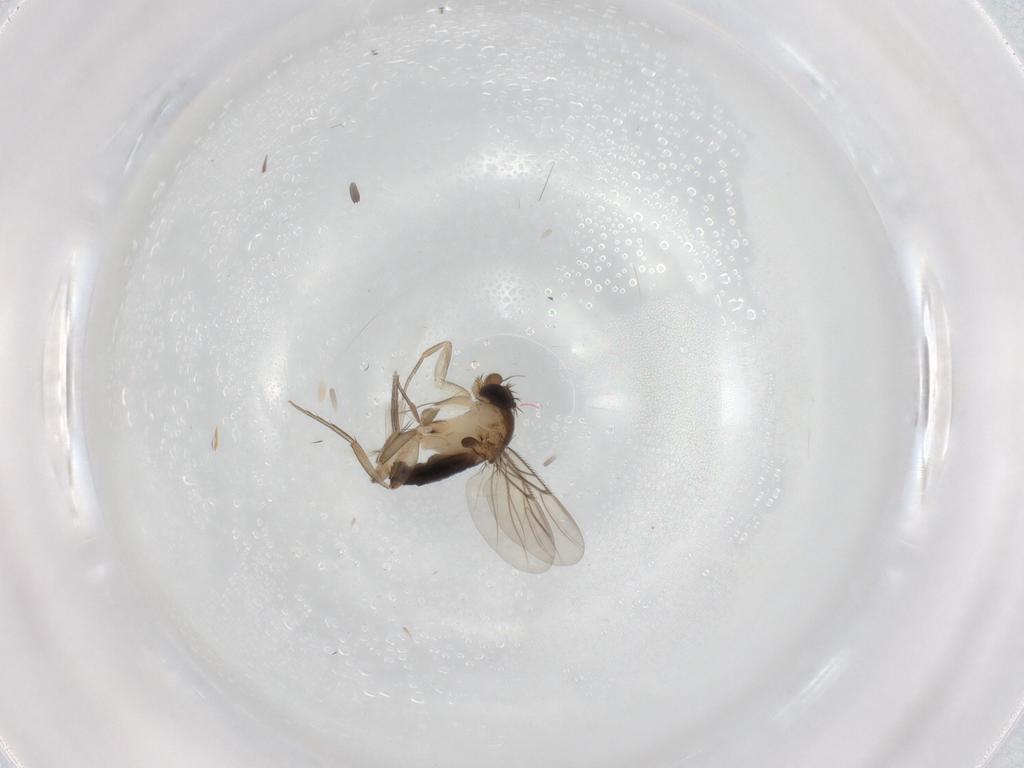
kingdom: Animalia
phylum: Arthropoda
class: Insecta
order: Diptera
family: Phoridae
